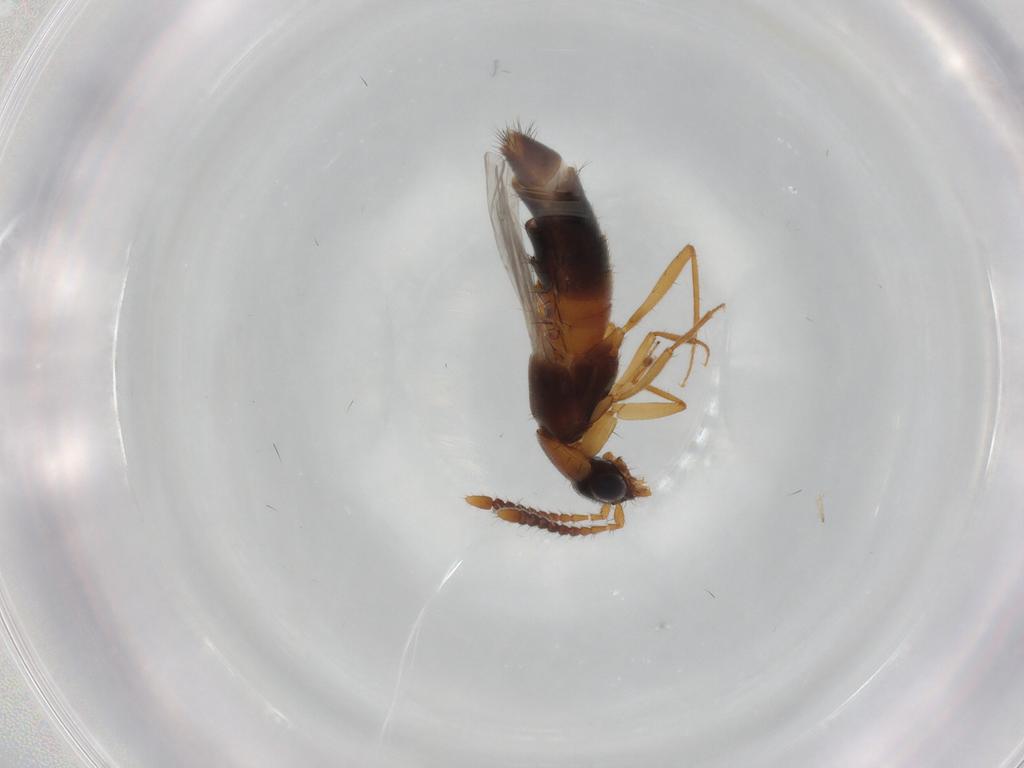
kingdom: Animalia
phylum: Arthropoda
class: Insecta
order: Coleoptera
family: Staphylinidae
